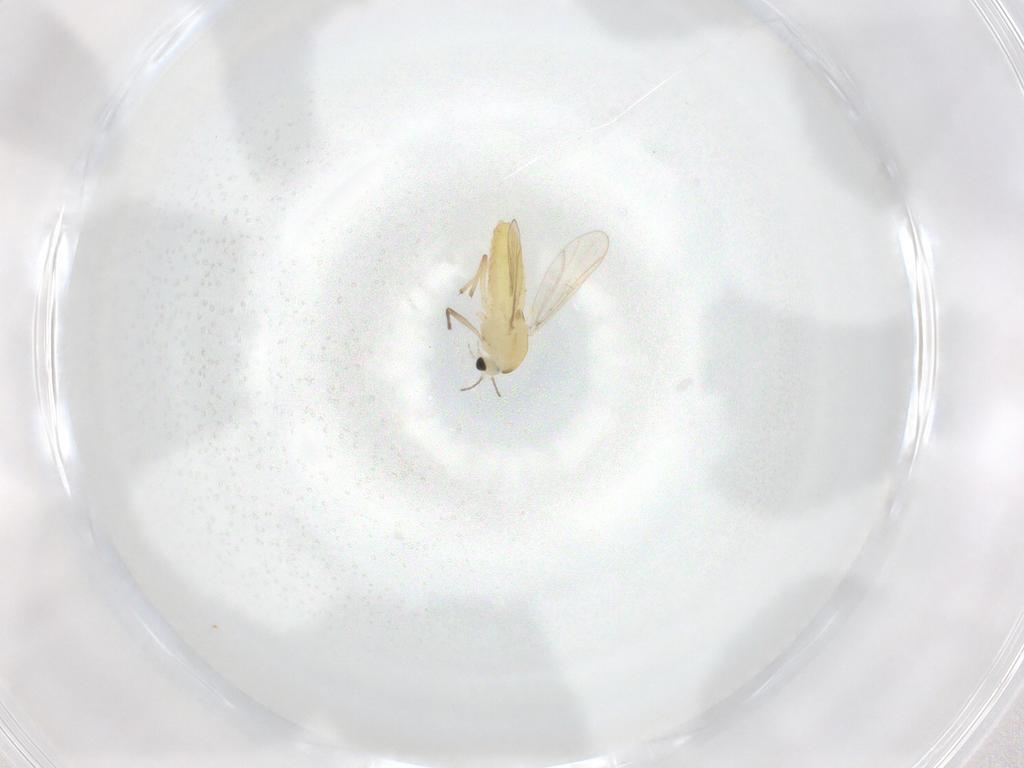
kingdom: Animalia
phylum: Arthropoda
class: Insecta
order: Diptera
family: Chironomidae
